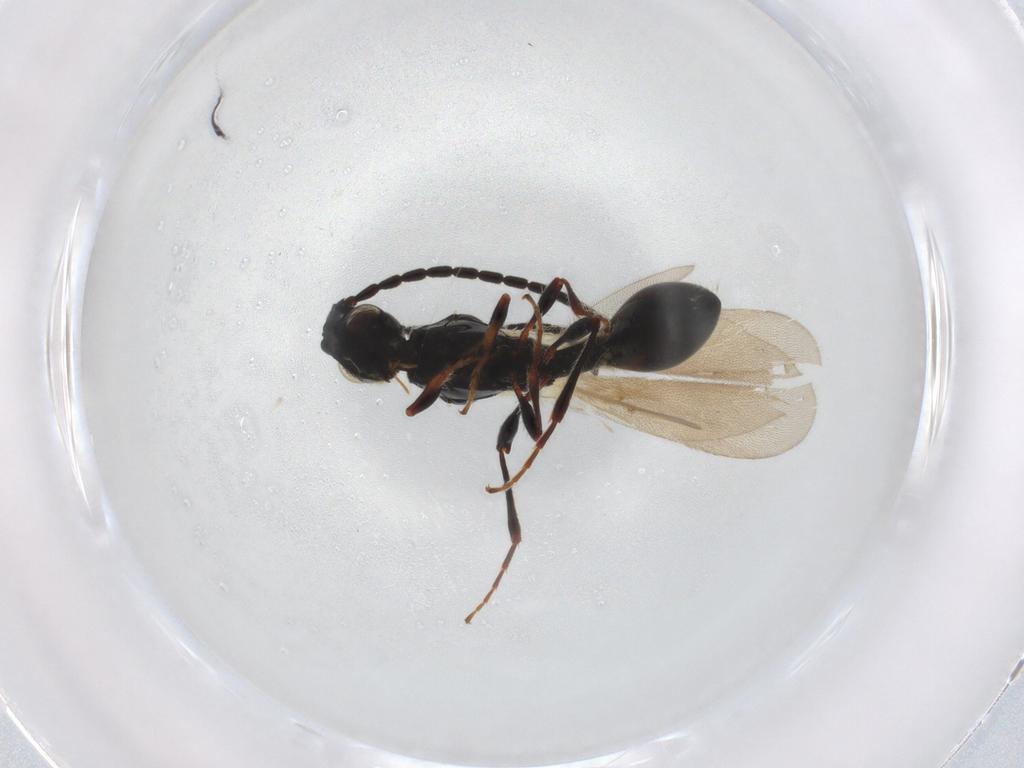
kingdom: Animalia
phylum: Arthropoda
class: Insecta
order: Hymenoptera
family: Diapriidae
